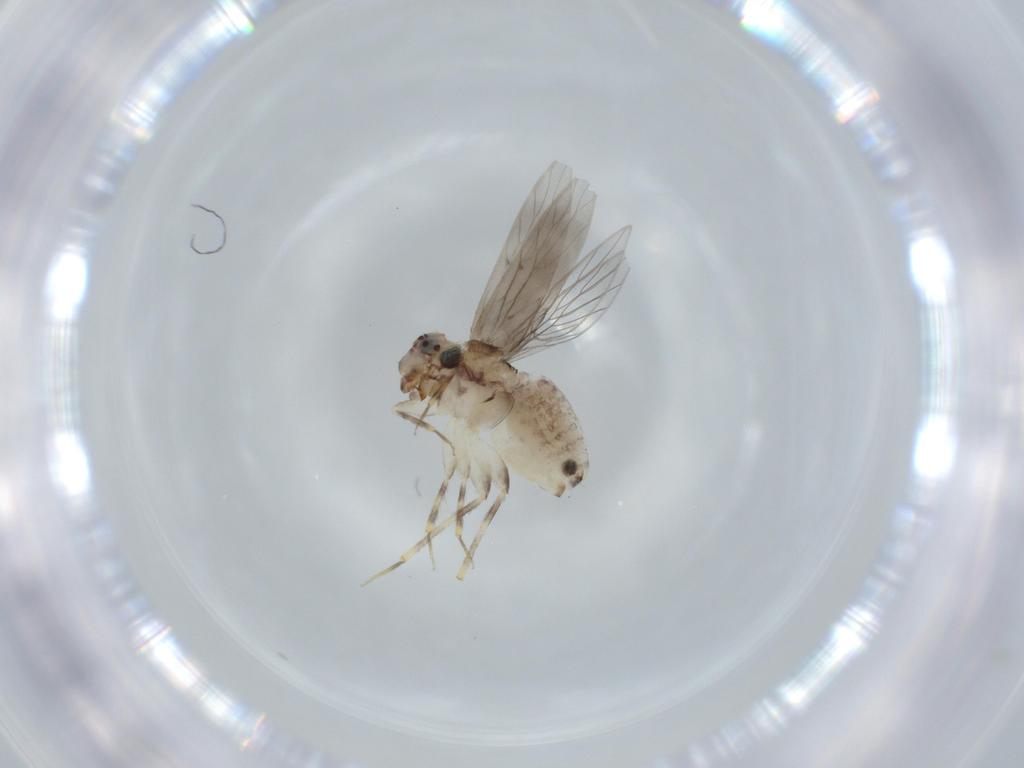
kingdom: Animalia
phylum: Arthropoda
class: Insecta
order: Psocodea
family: Lepidopsocidae
